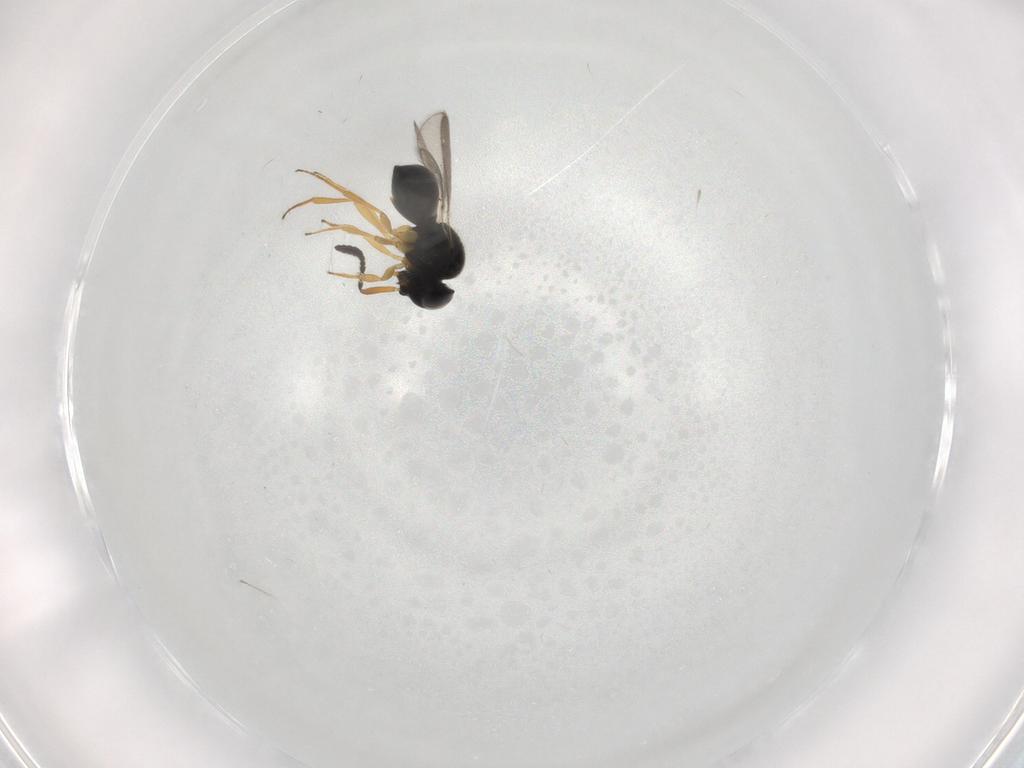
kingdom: Animalia
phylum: Arthropoda
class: Insecta
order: Hymenoptera
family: Scelionidae
